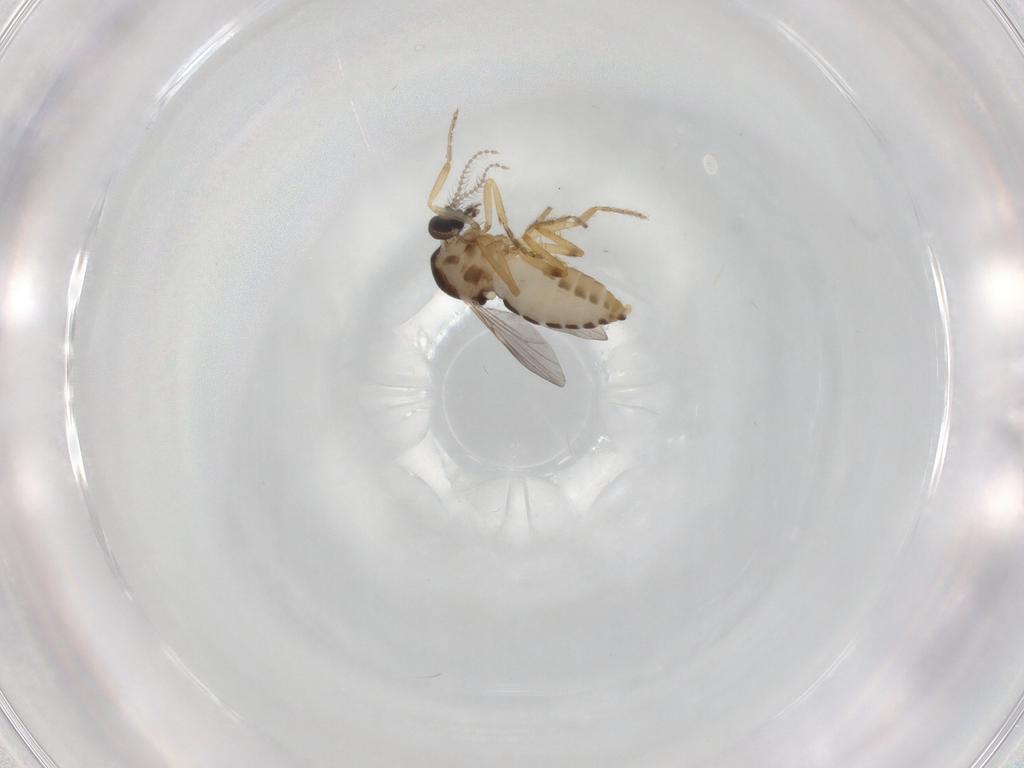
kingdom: Animalia
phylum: Arthropoda
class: Insecta
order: Diptera
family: Ceratopogonidae
